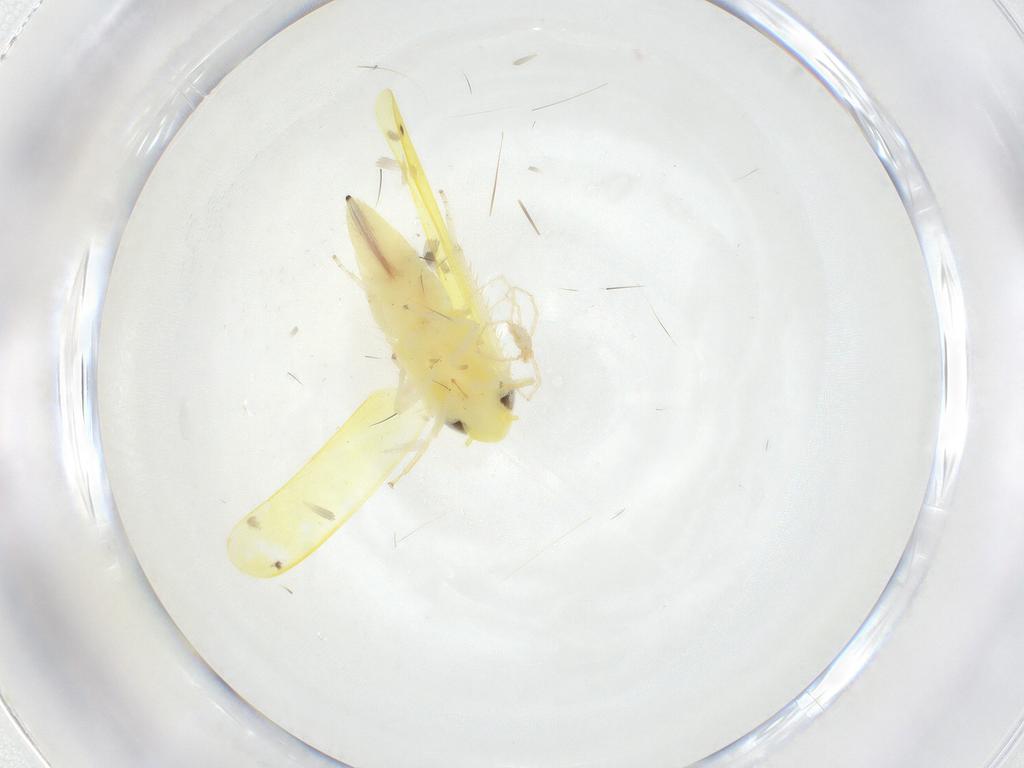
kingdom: Animalia
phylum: Arthropoda
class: Insecta
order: Hemiptera
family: Cicadellidae
